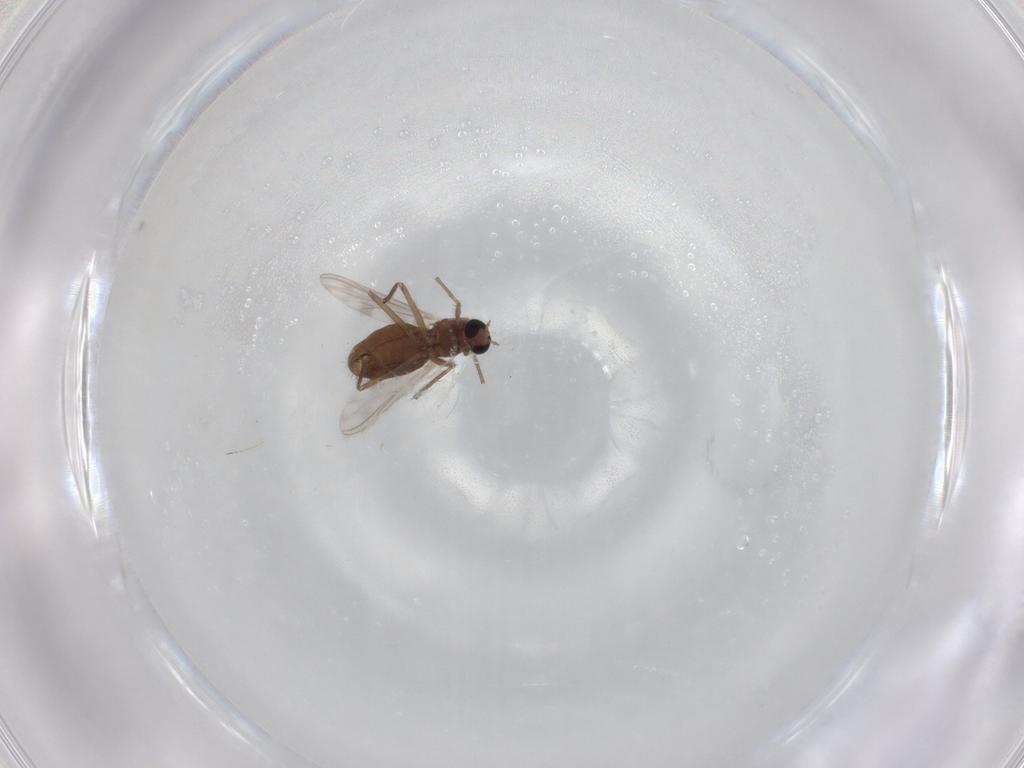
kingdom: Animalia
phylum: Arthropoda
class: Insecta
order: Diptera
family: Chironomidae
